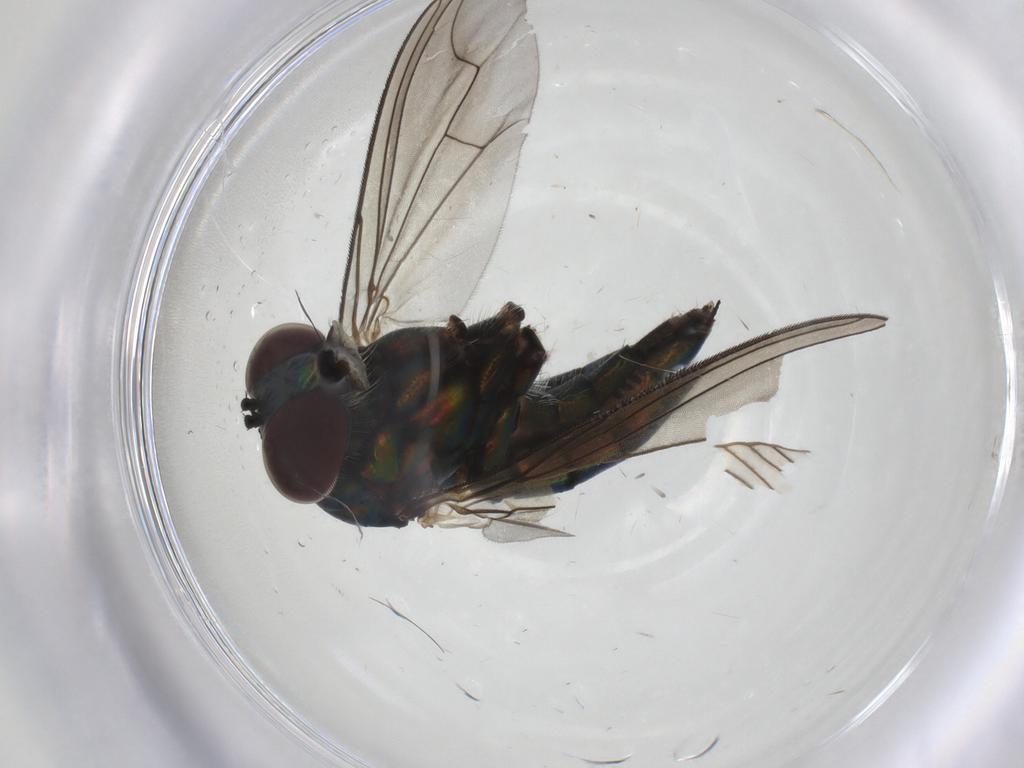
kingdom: Animalia
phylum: Arthropoda
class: Insecta
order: Diptera
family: Dolichopodidae
